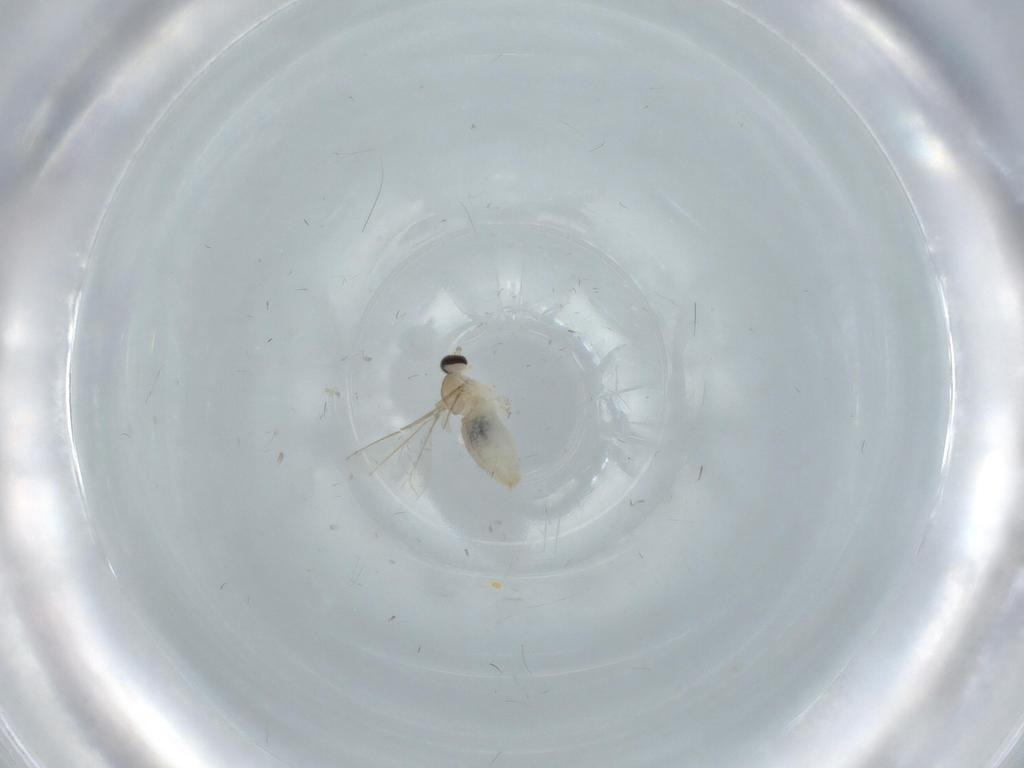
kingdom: Animalia
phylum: Arthropoda
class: Insecta
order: Diptera
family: Cecidomyiidae
